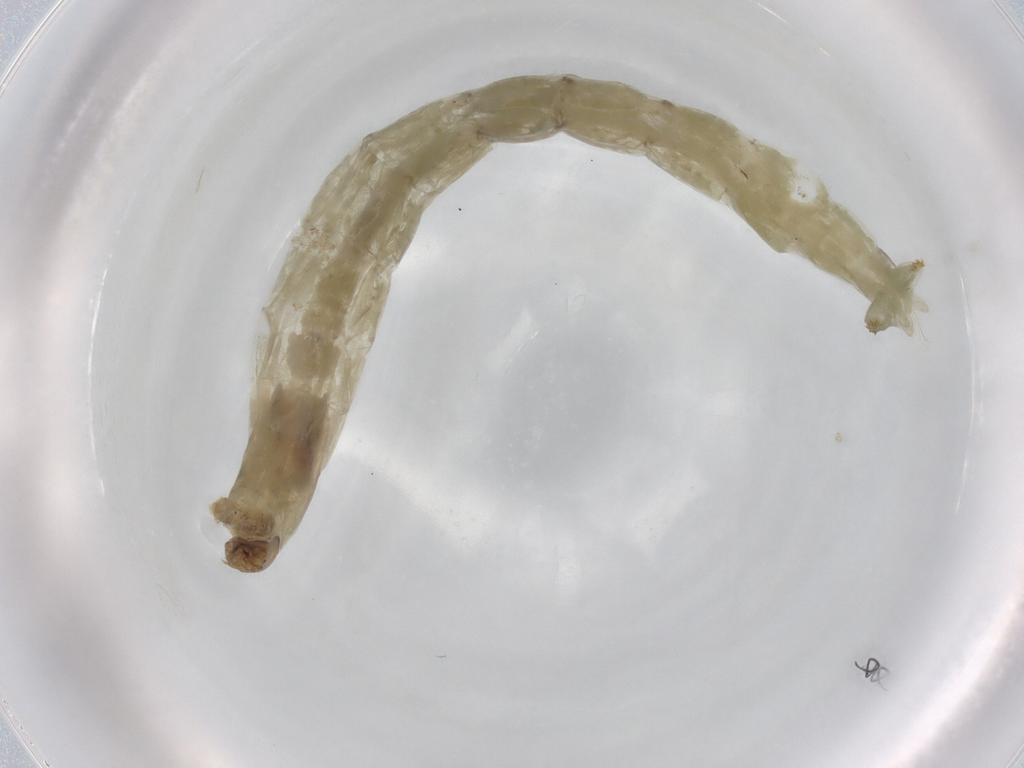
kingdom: Animalia
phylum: Arthropoda
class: Insecta
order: Diptera
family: Chironomidae
